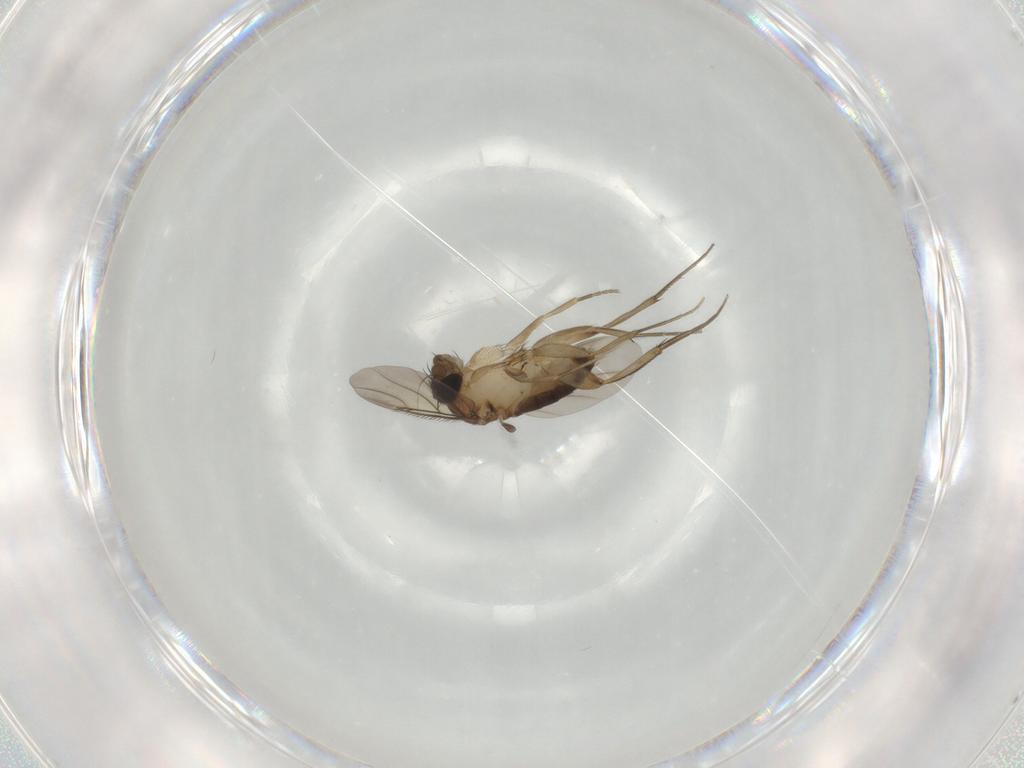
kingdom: Animalia
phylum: Arthropoda
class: Insecta
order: Diptera
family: Phoridae
